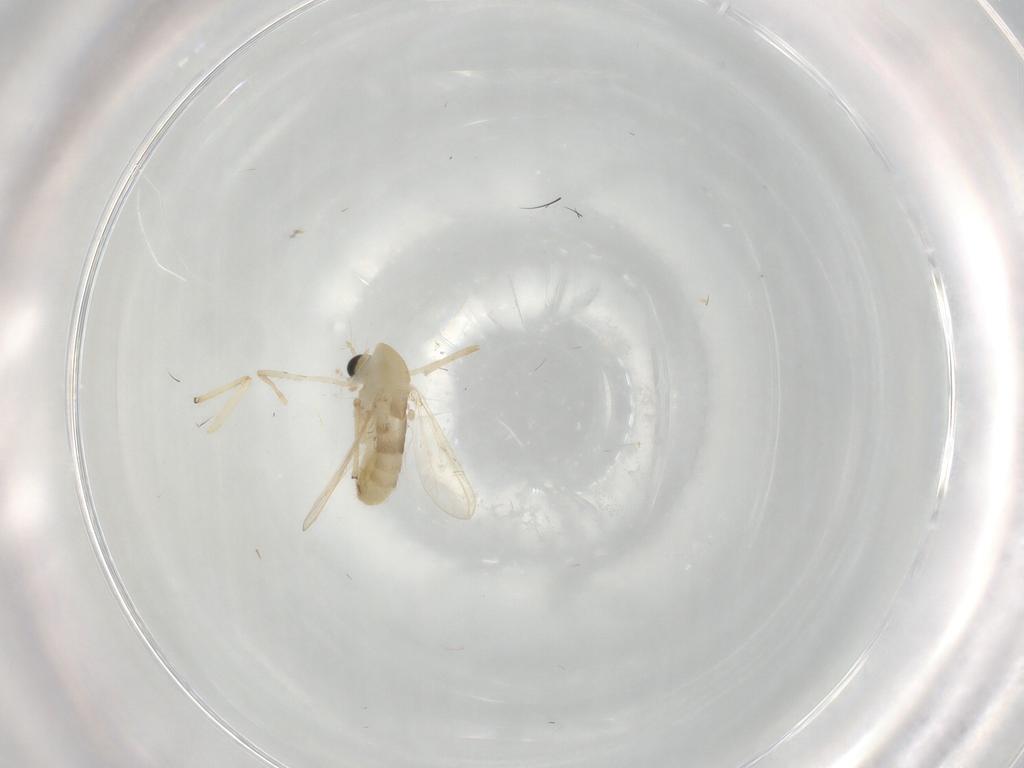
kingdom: Animalia
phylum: Arthropoda
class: Insecta
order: Diptera
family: Chironomidae
